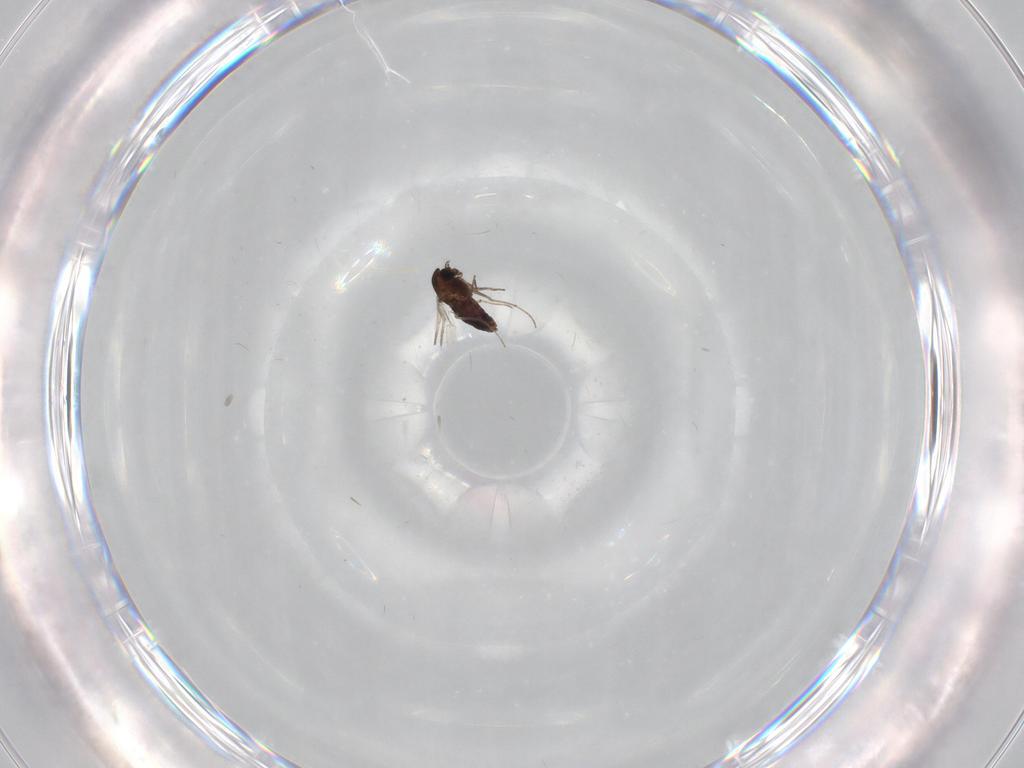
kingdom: Animalia
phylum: Arthropoda
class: Insecta
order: Diptera
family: Chironomidae
